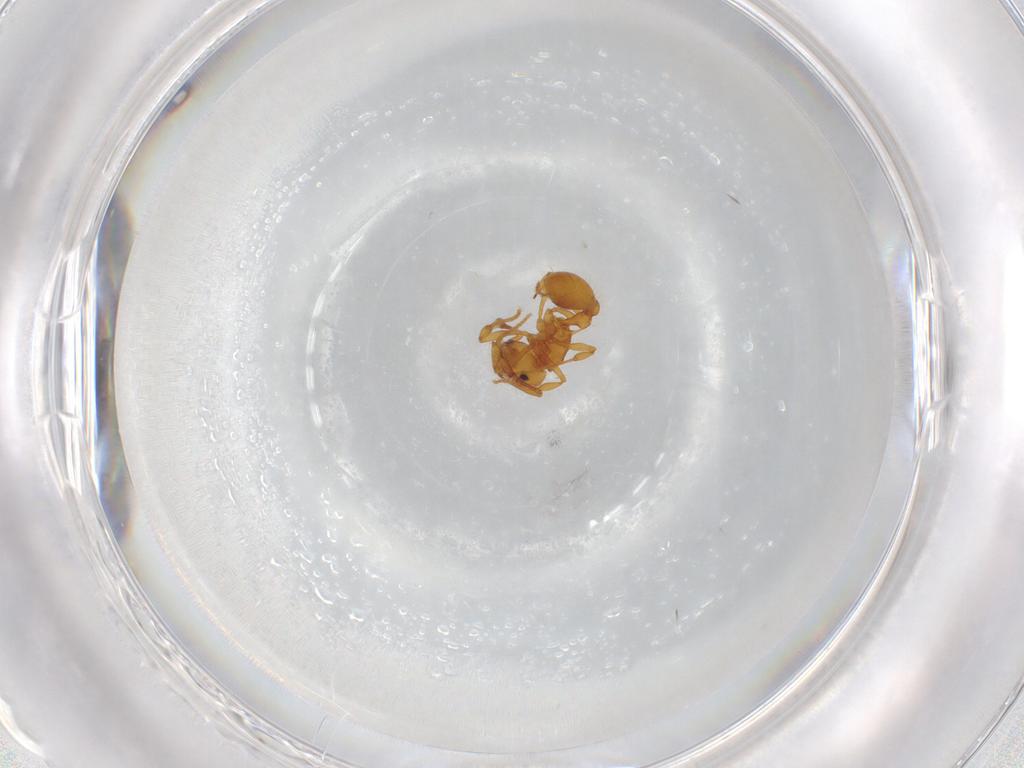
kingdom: Animalia
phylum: Arthropoda
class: Insecta
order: Hymenoptera
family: Formicidae
